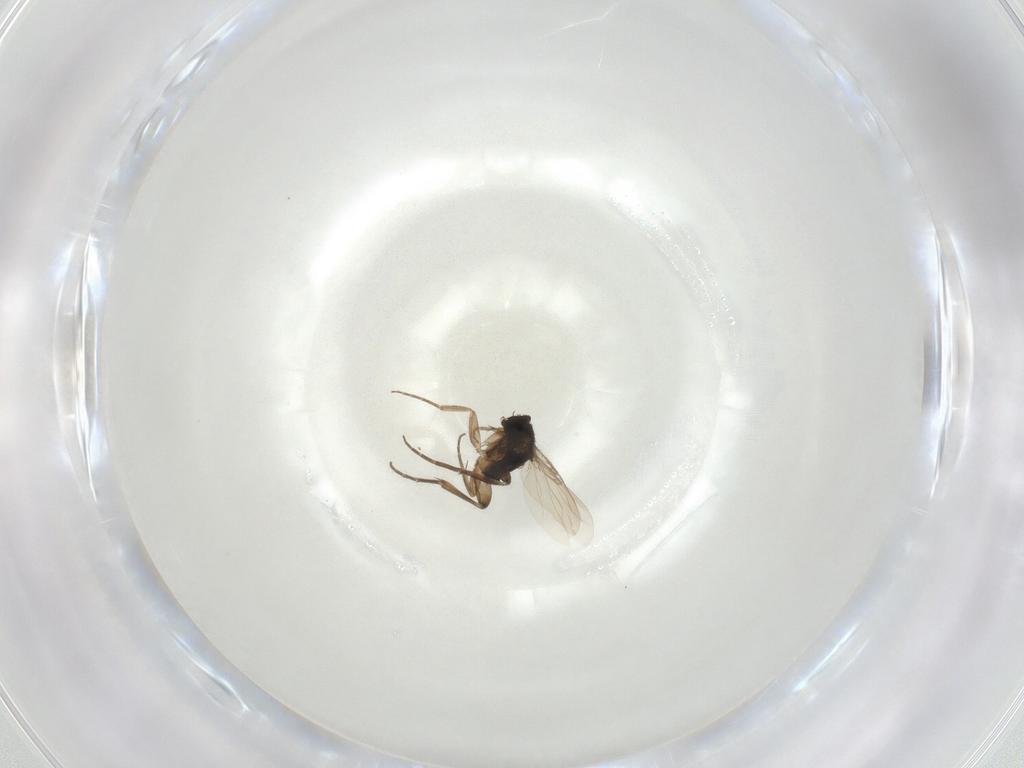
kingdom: Animalia
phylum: Arthropoda
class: Insecta
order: Diptera
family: Phoridae
